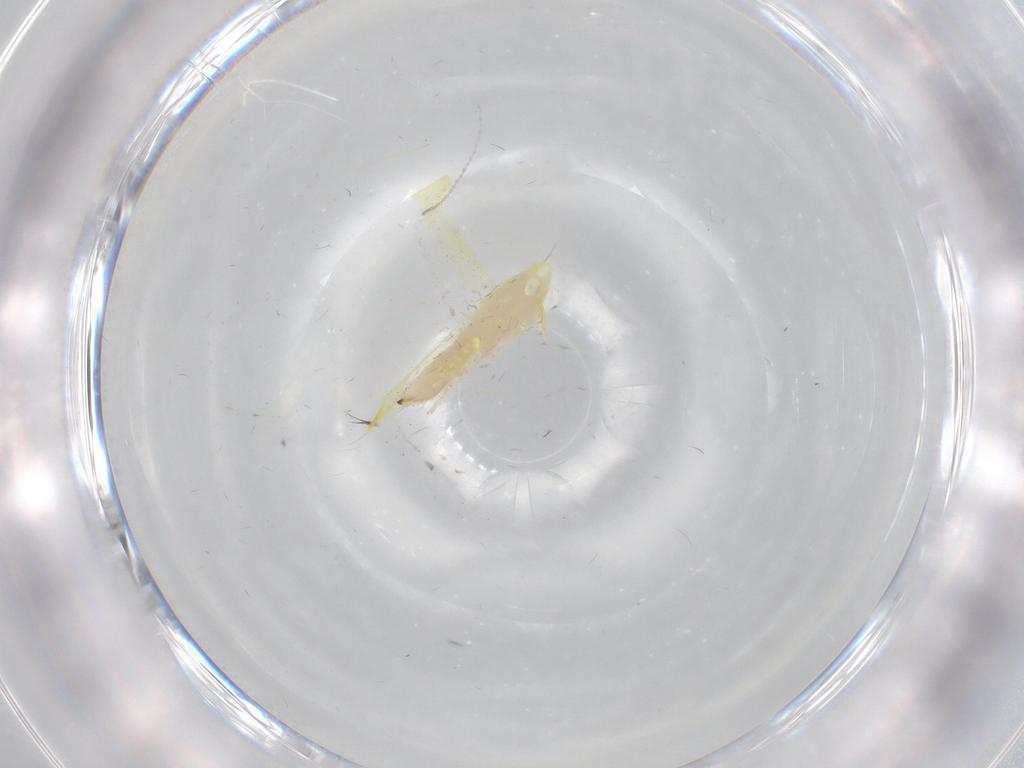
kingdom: Animalia
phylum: Arthropoda
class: Insecta
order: Hemiptera
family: Cicadellidae
